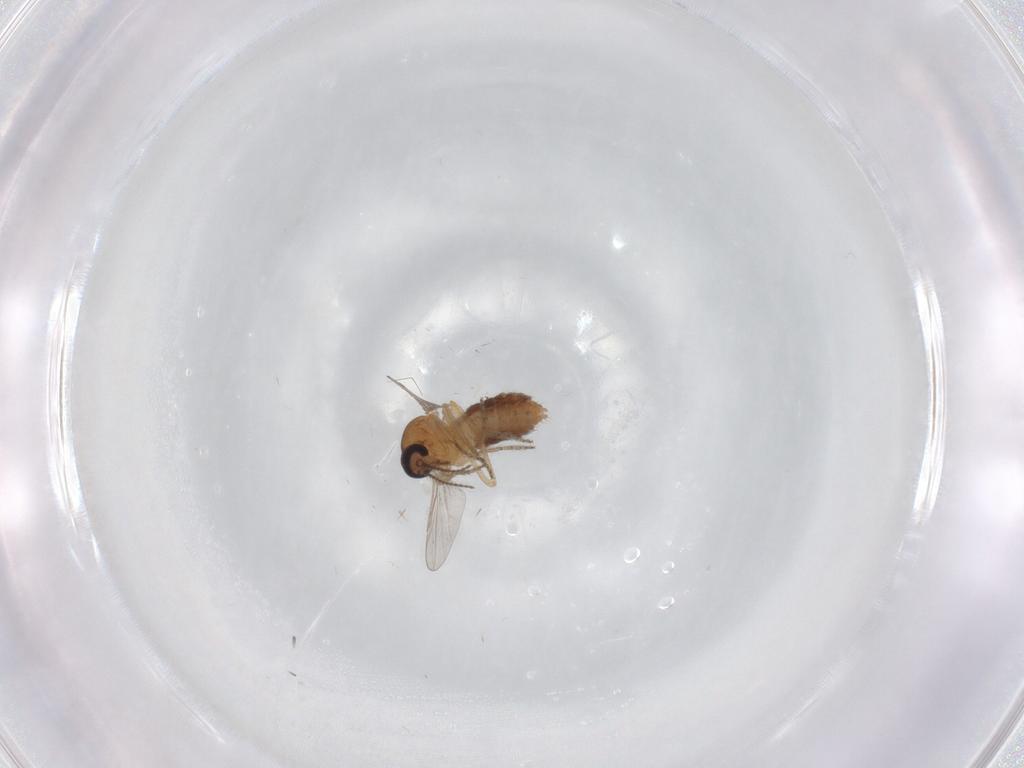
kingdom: Animalia
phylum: Arthropoda
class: Insecta
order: Diptera
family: Ceratopogonidae
